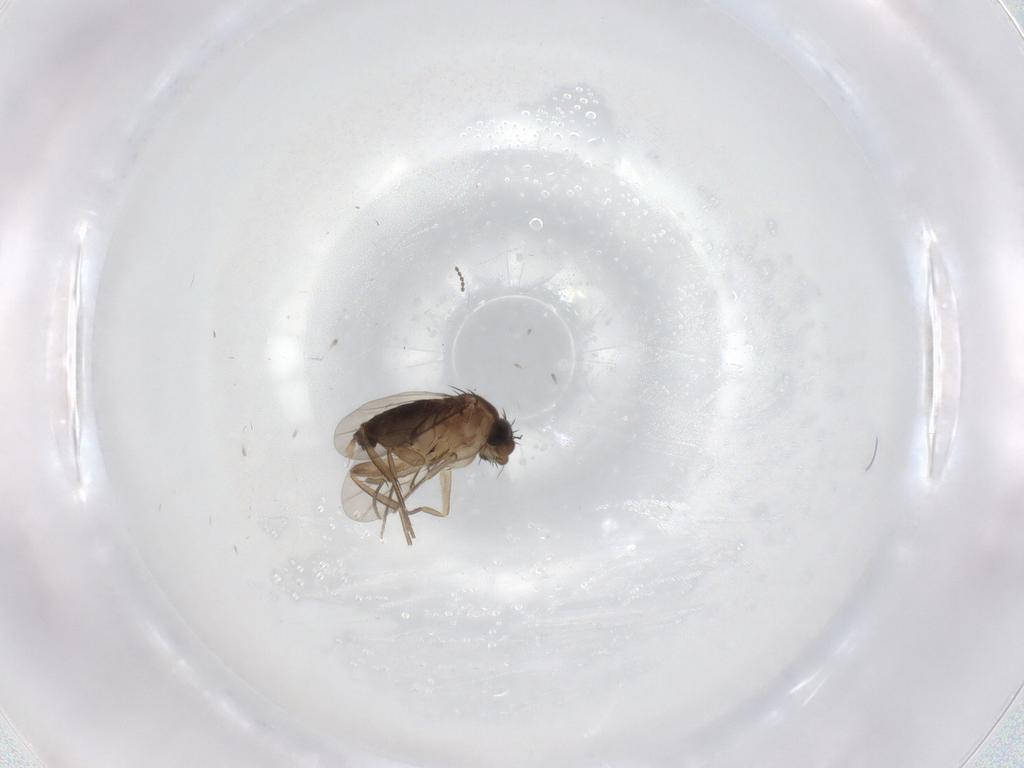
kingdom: Animalia
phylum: Arthropoda
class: Insecta
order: Diptera
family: Phoridae
